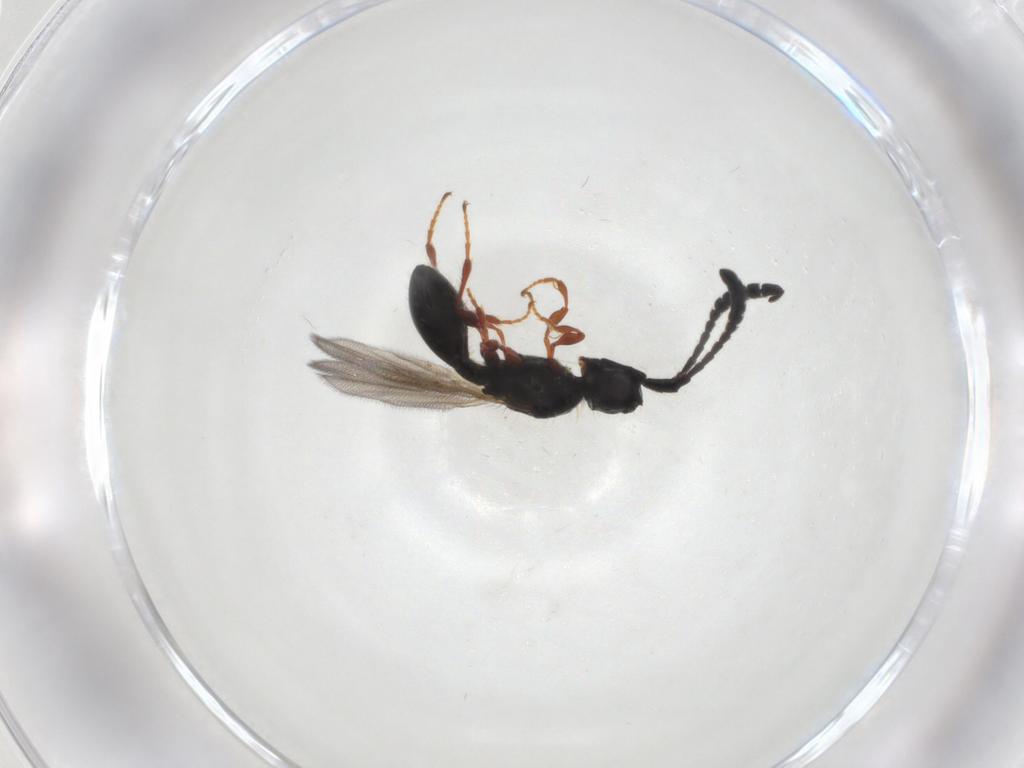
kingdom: Animalia
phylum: Arthropoda
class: Insecta
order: Hymenoptera
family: Diapriidae
